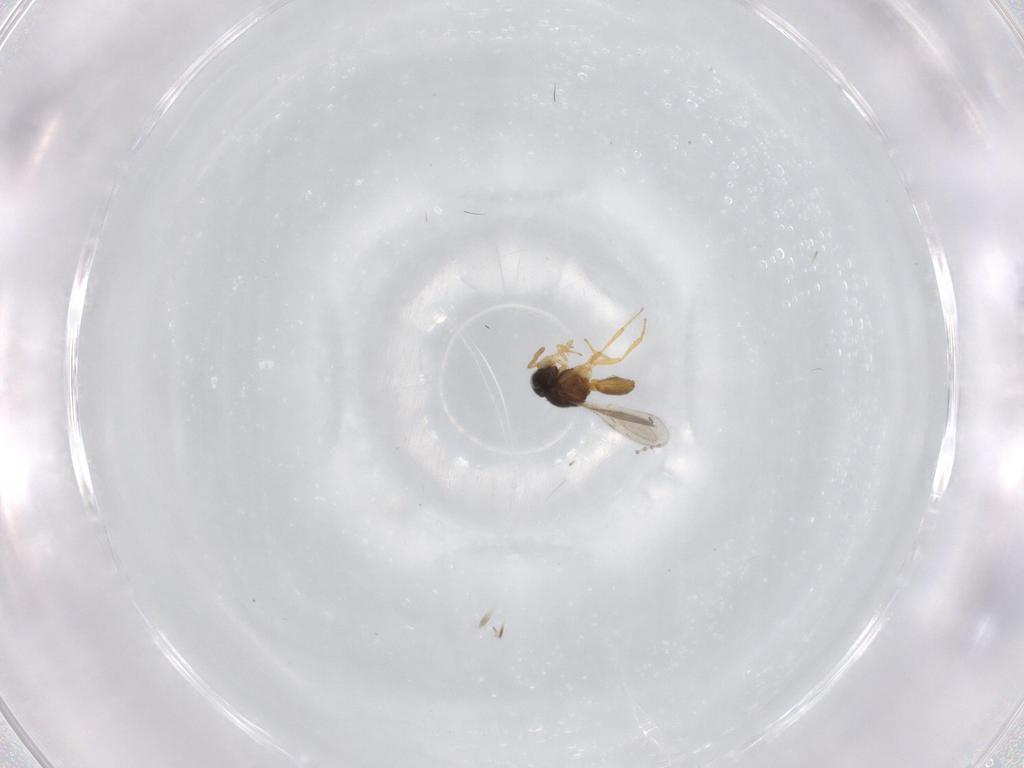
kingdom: Animalia
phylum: Arthropoda
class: Insecta
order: Hymenoptera
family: Scelionidae
